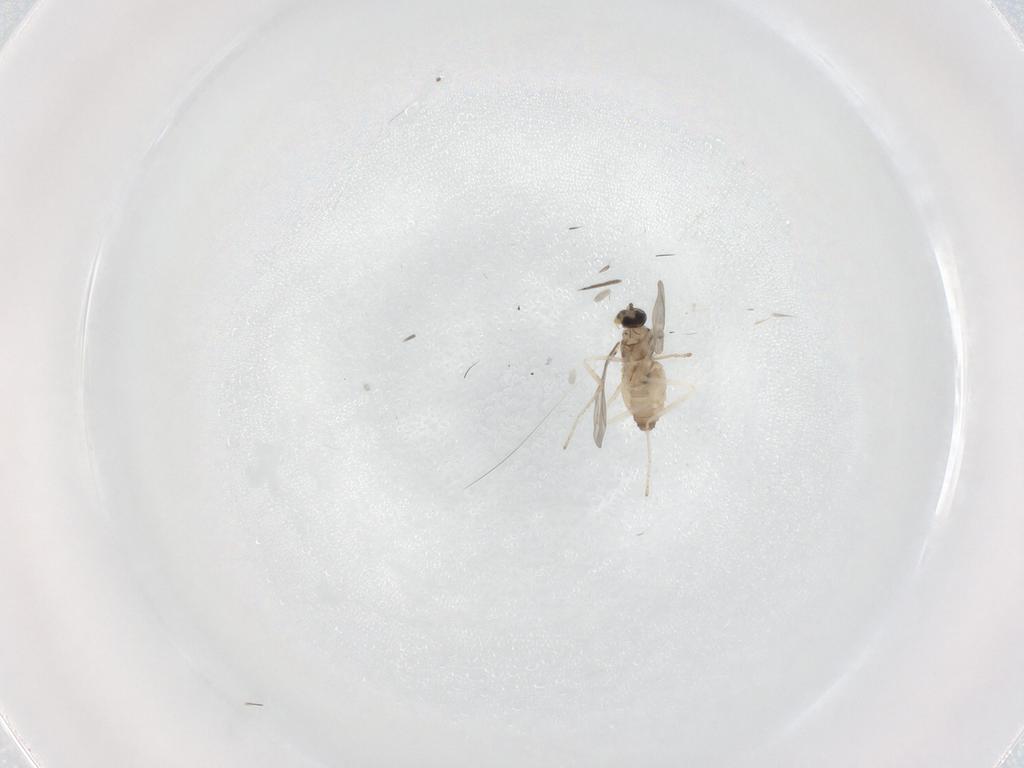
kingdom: Animalia
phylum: Arthropoda
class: Insecta
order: Diptera
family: Cecidomyiidae
